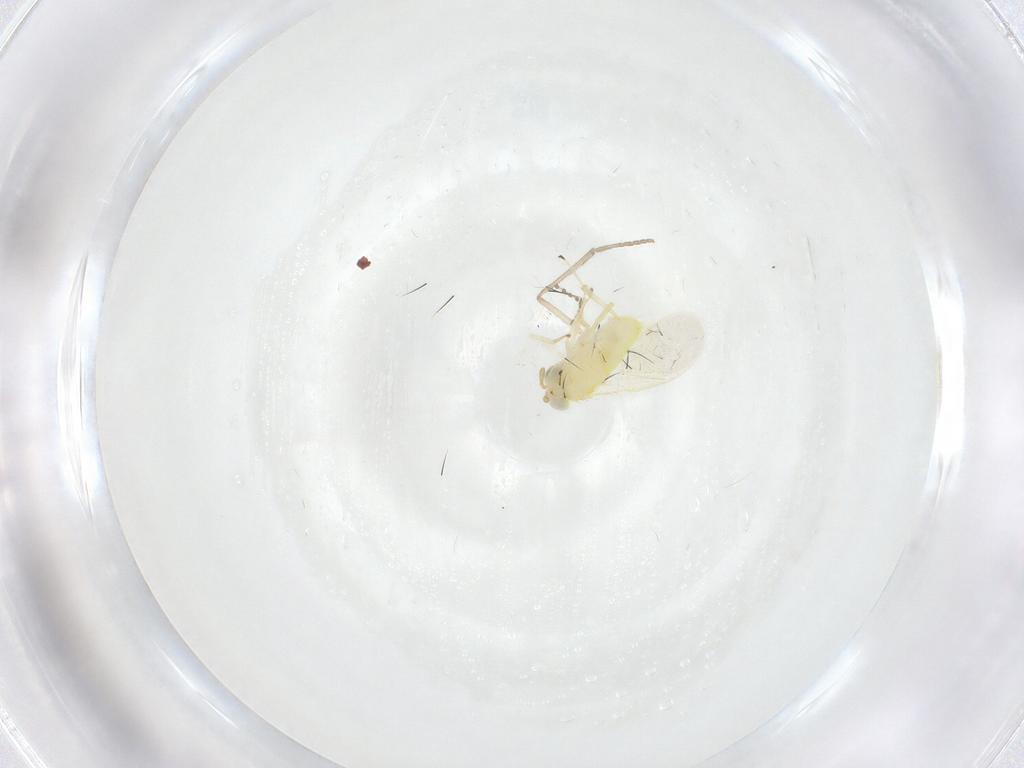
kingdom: Animalia
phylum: Arthropoda
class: Insecta
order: Hymenoptera
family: Aphelinidae
